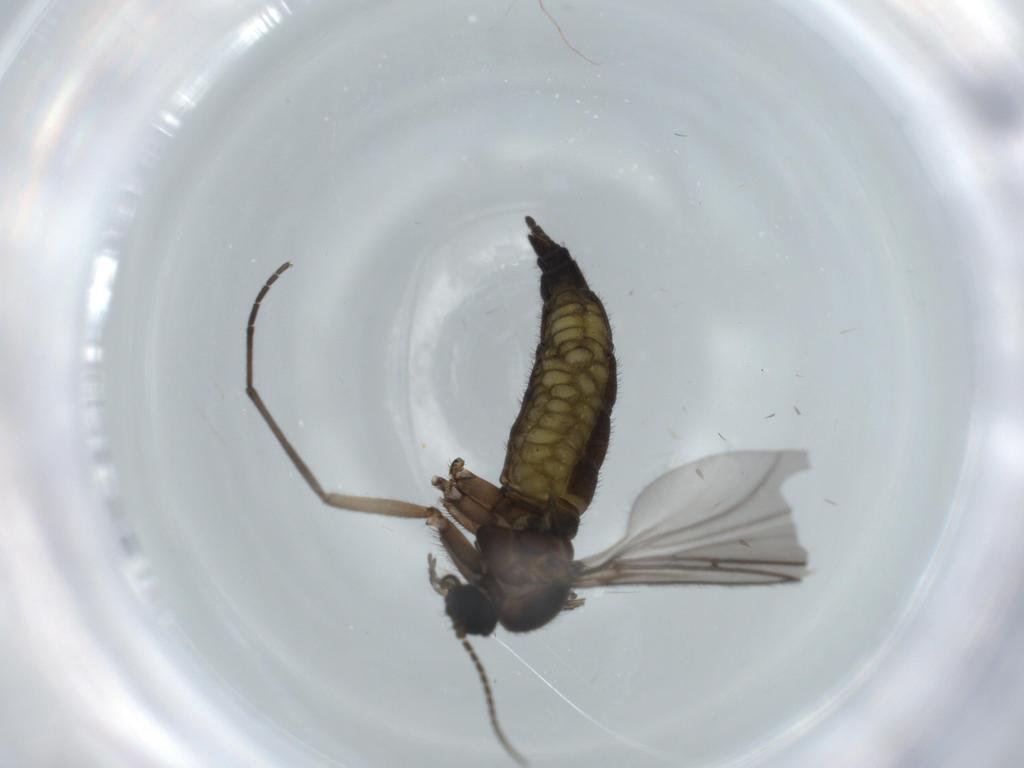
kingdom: Animalia
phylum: Arthropoda
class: Insecta
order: Diptera
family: Sciaridae
